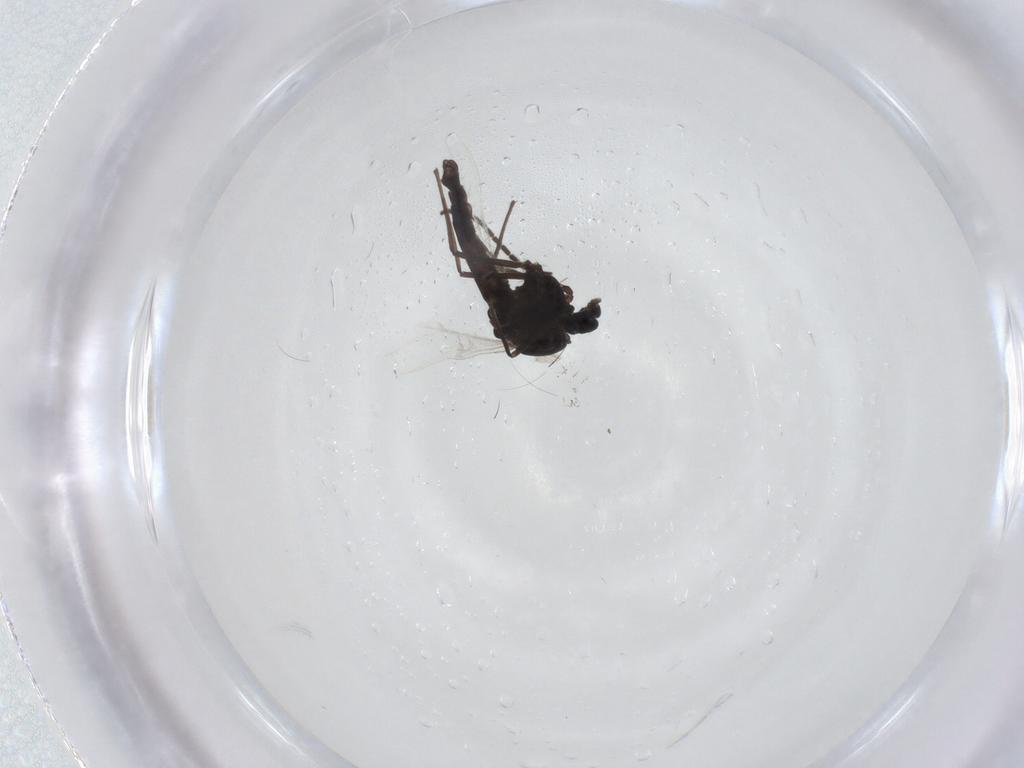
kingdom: Animalia
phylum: Arthropoda
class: Insecta
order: Diptera
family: Sciaridae
